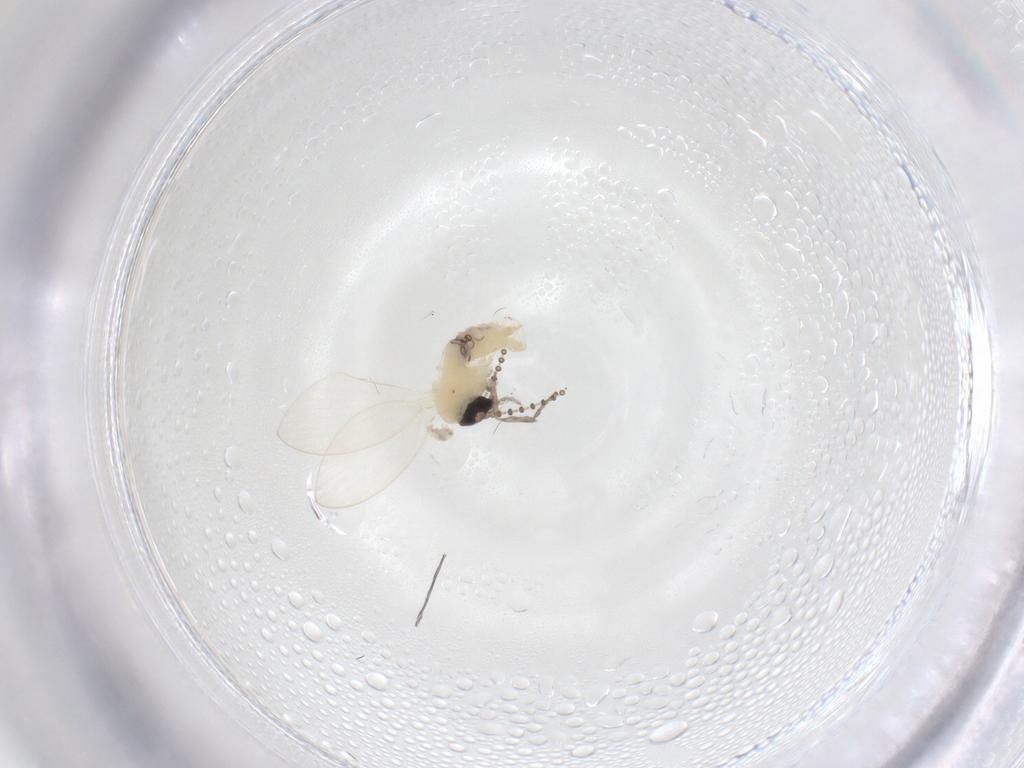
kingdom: Animalia
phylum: Arthropoda
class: Insecta
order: Diptera
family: Psychodidae
